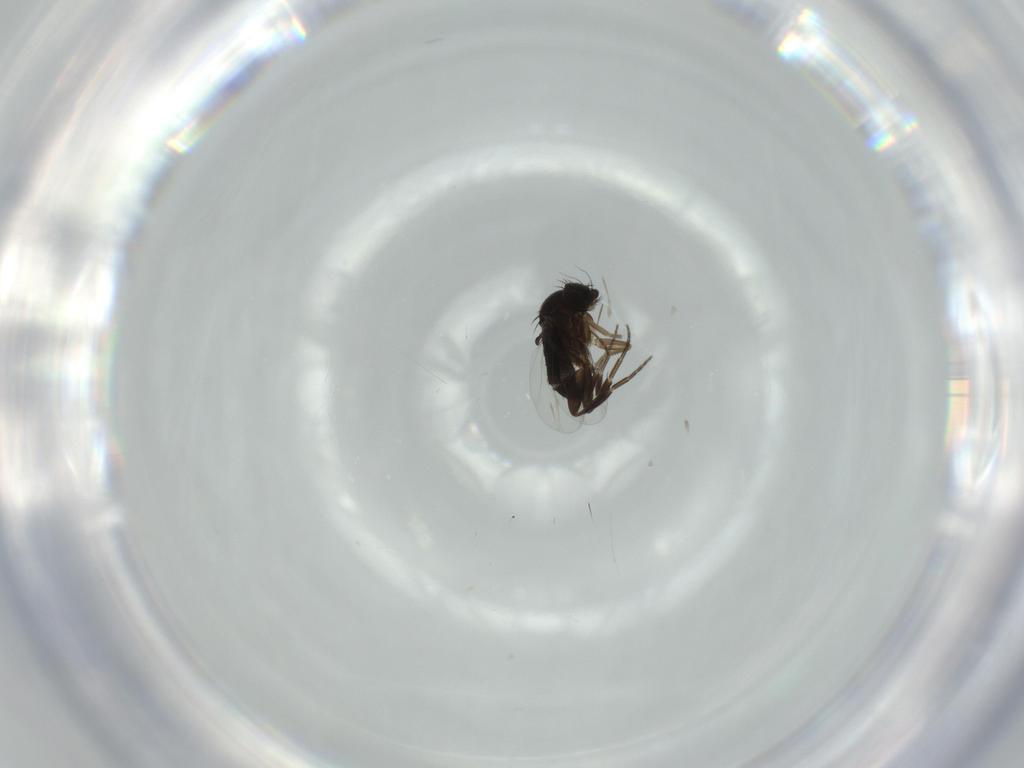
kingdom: Animalia
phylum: Arthropoda
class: Insecta
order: Diptera
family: Phoridae
